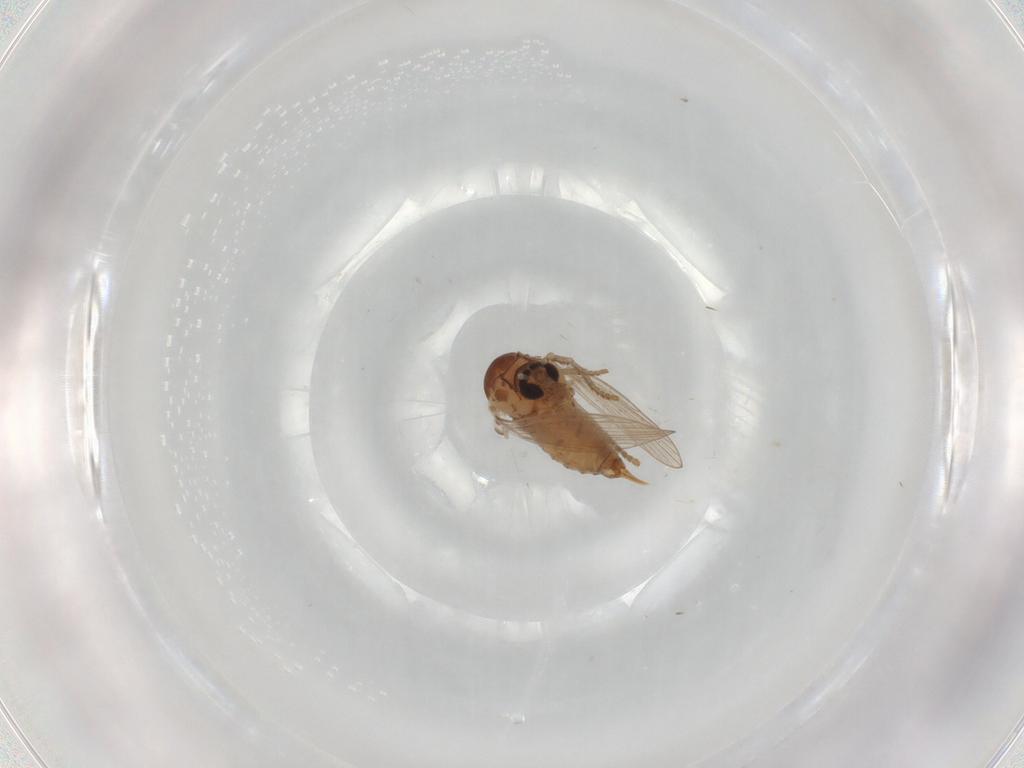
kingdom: Animalia
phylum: Arthropoda
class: Insecta
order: Diptera
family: Psychodidae
